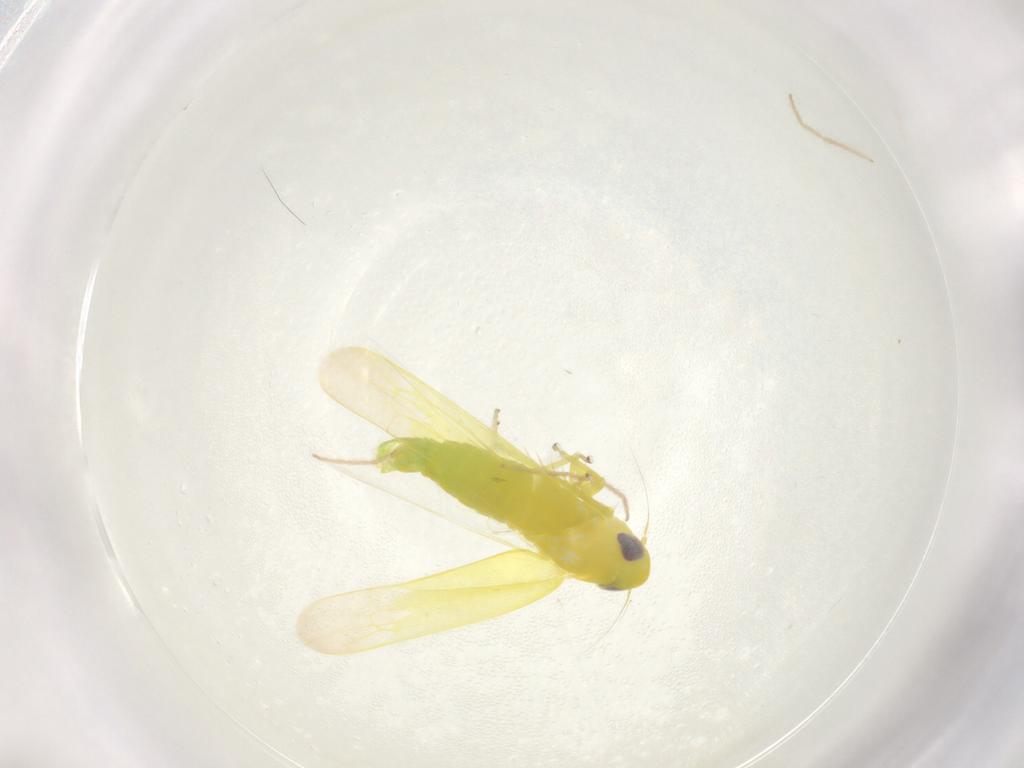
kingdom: Animalia
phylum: Arthropoda
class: Insecta
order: Hemiptera
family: Cicadellidae
